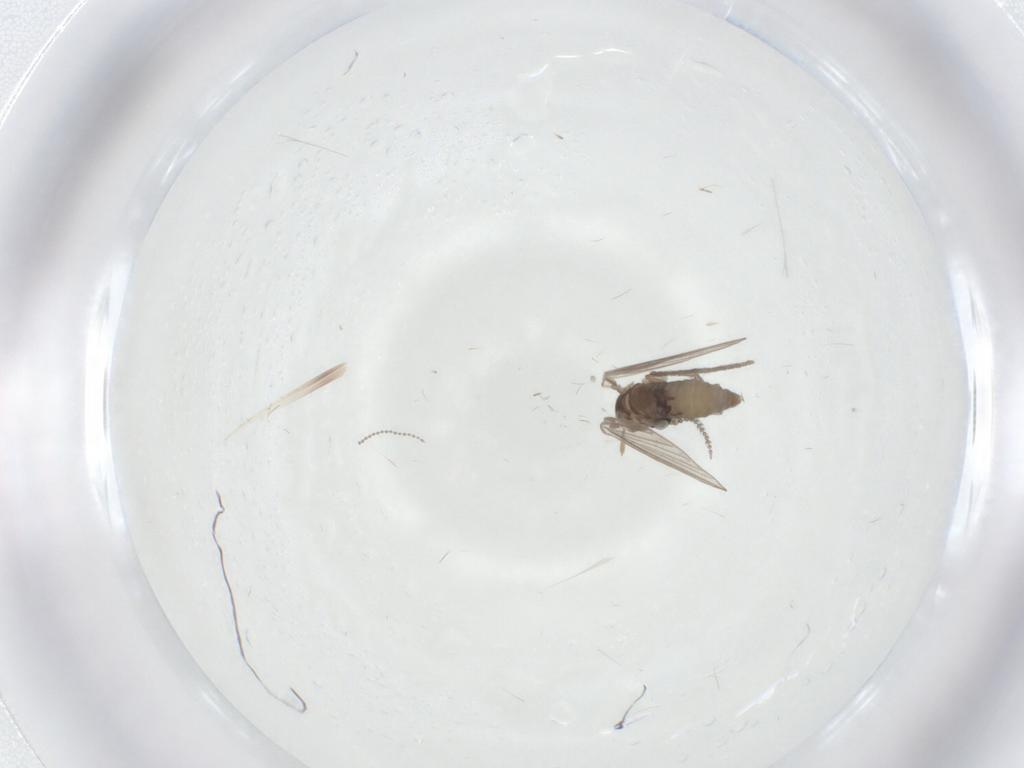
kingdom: Animalia
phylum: Arthropoda
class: Insecta
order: Diptera
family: Psychodidae
